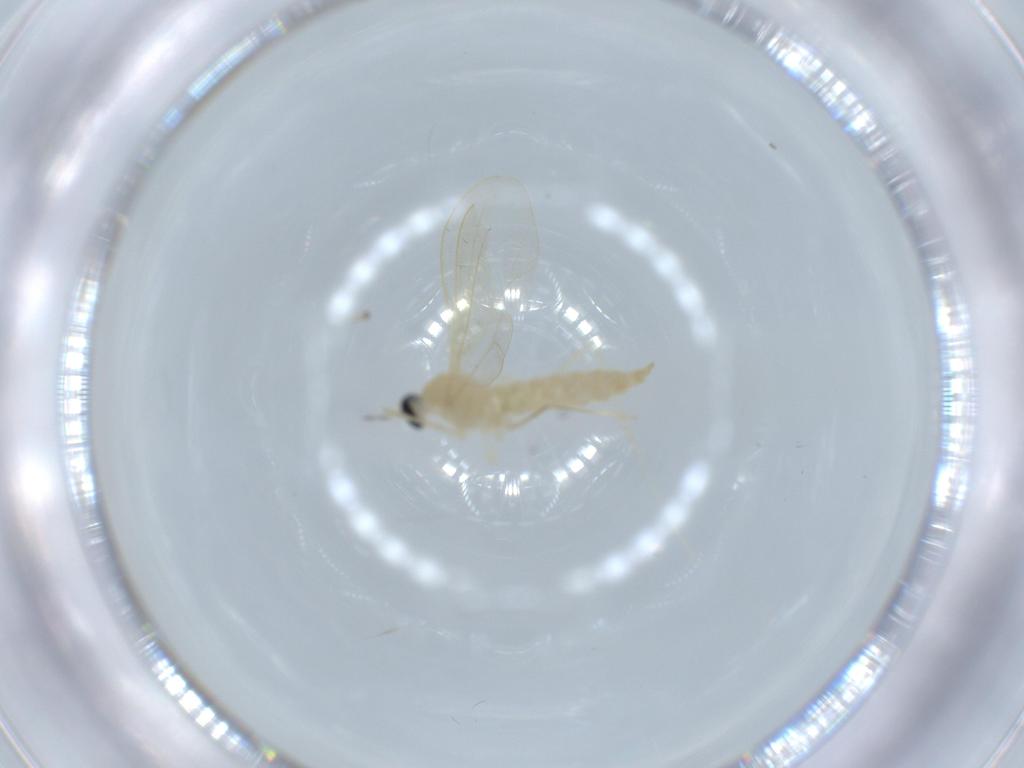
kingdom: Animalia
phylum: Arthropoda
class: Insecta
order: Diptera
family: Cecidomyiidae
